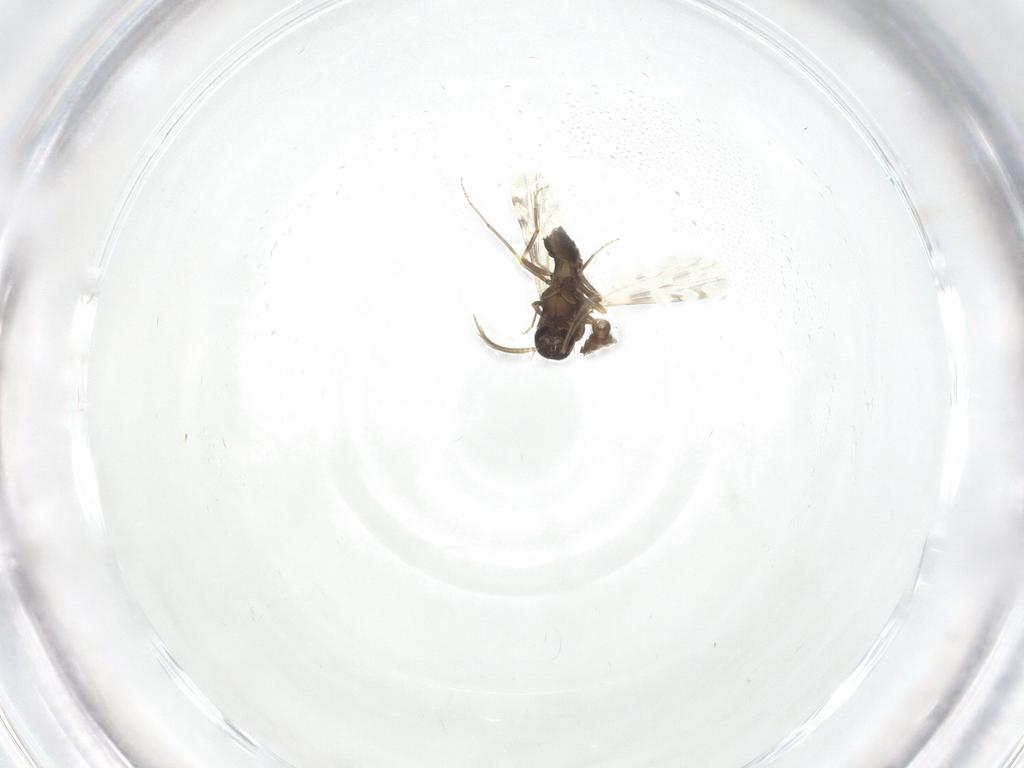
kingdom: Animalia
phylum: Arthropoda
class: Insecta
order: Diptera
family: Ceratopogonidae
